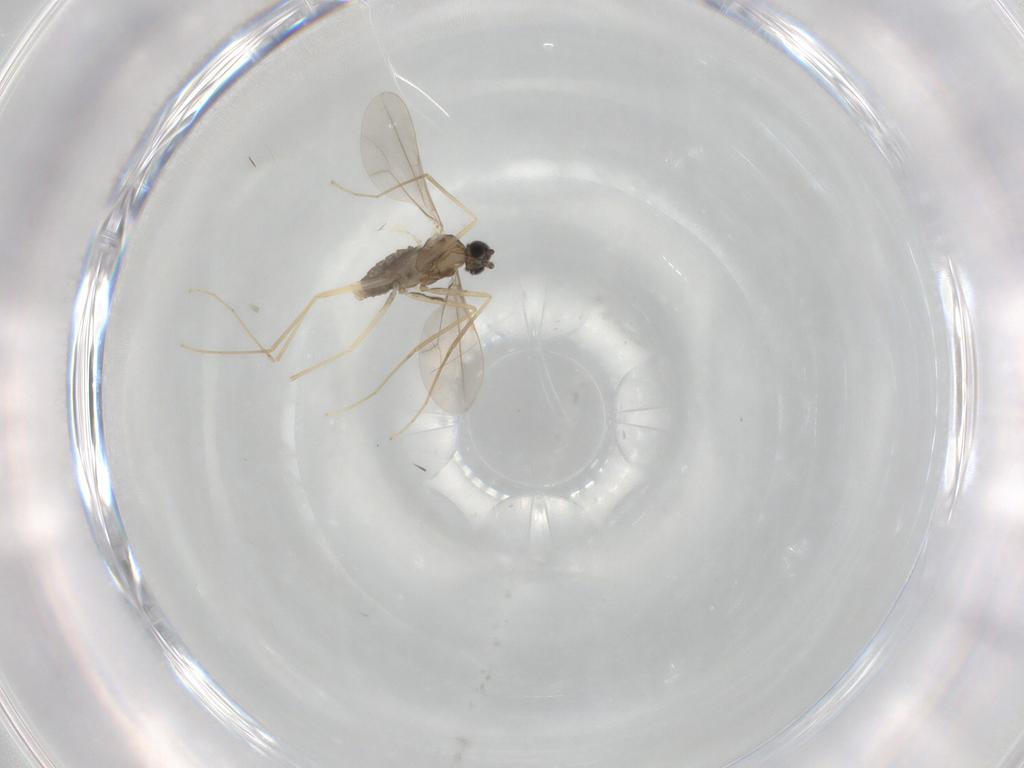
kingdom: Animalia
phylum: Arthropoda
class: Insecta
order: Diptera
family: Cecidomyiidae
